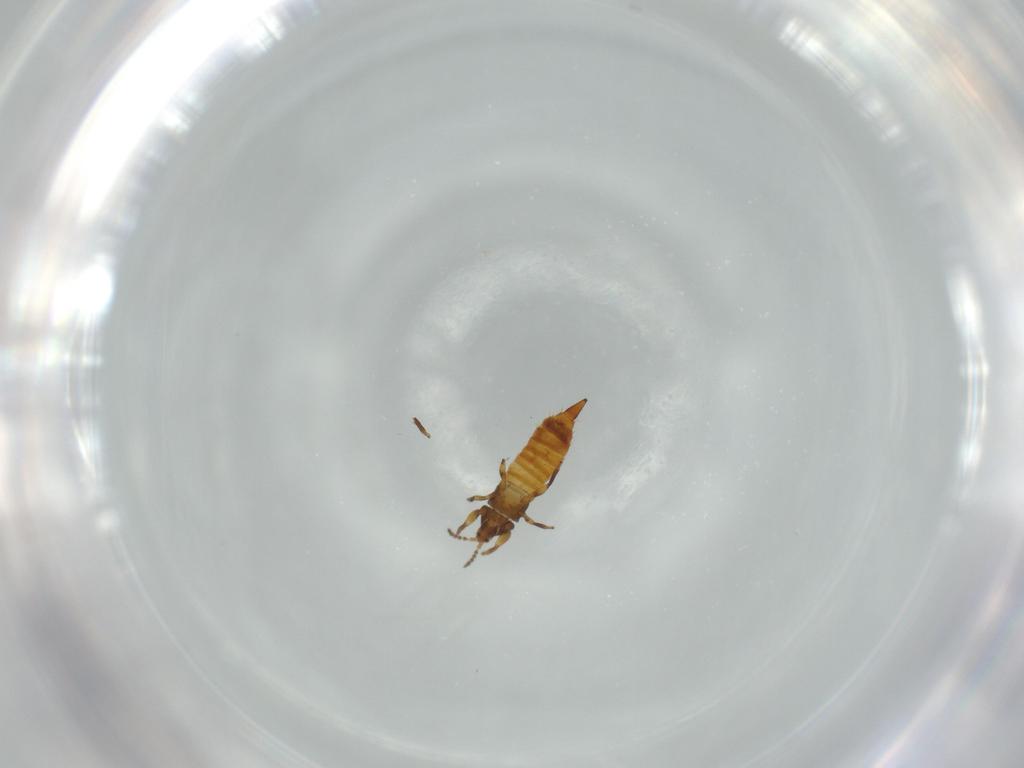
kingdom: Animalia
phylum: Arthropoda
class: Insecta
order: Thysanoptera
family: Phlaeothripidae
